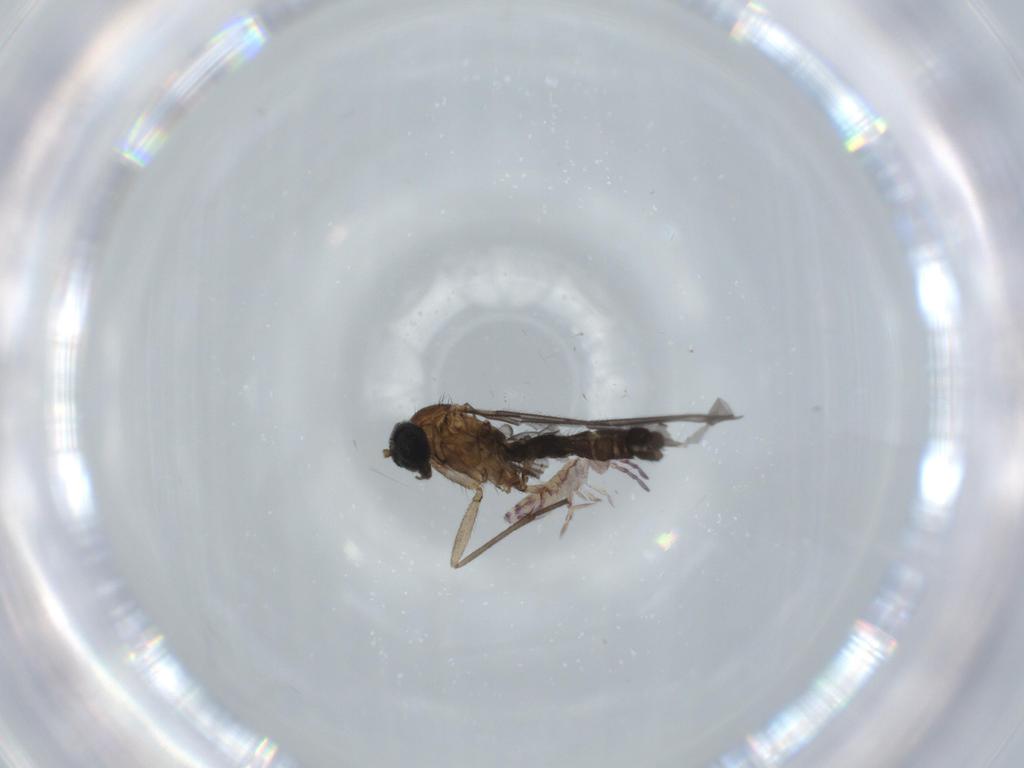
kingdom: Animalia
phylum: Arthropoda
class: Insecta
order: Diptera
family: Sciaridae
